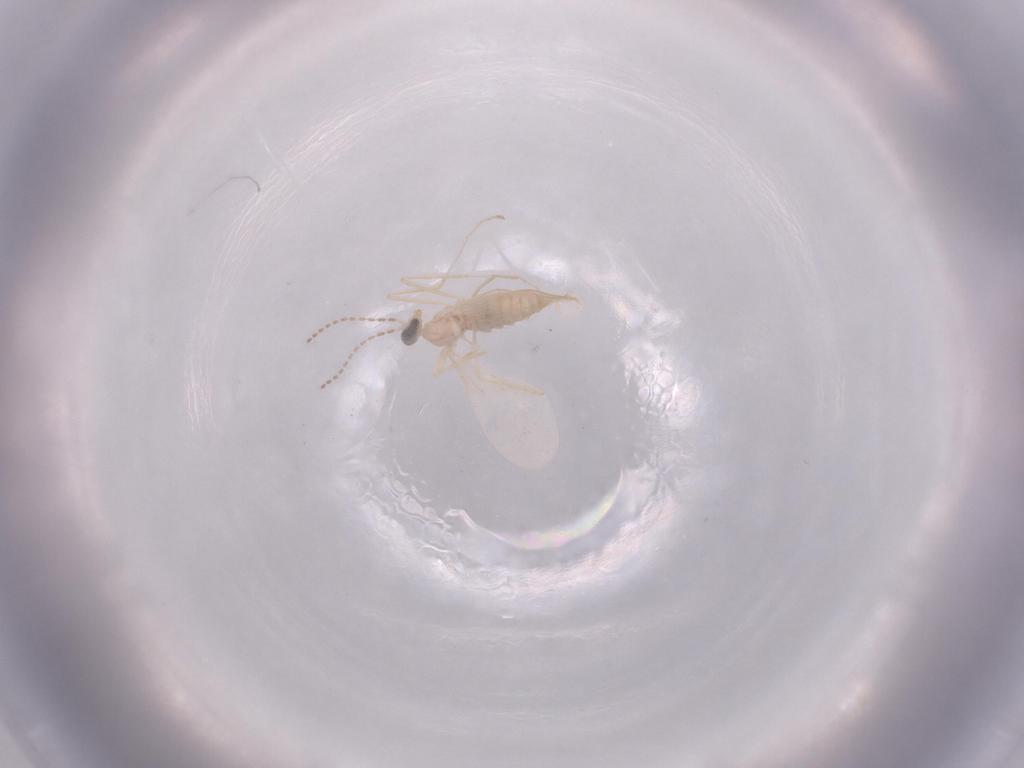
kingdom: Animalia
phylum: Arthropoda
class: Insecta
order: Diptera
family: Cecidomyiidae
